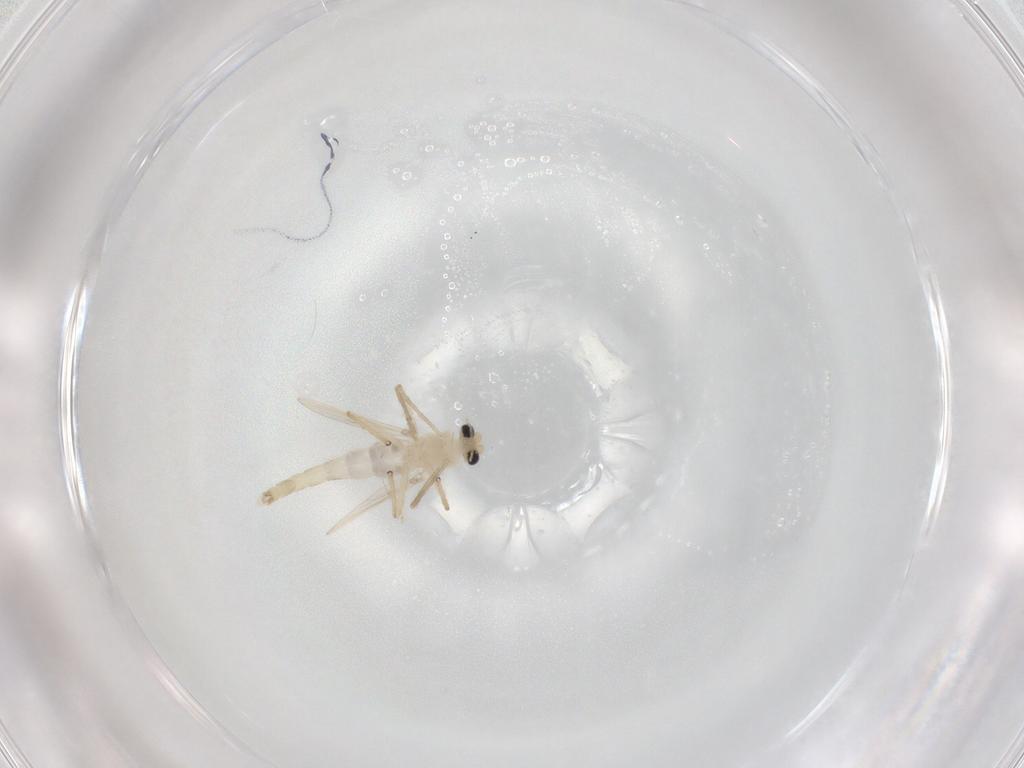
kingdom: Animalia
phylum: Arthropoda
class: Insecta
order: Diptera
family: Chironomidae
